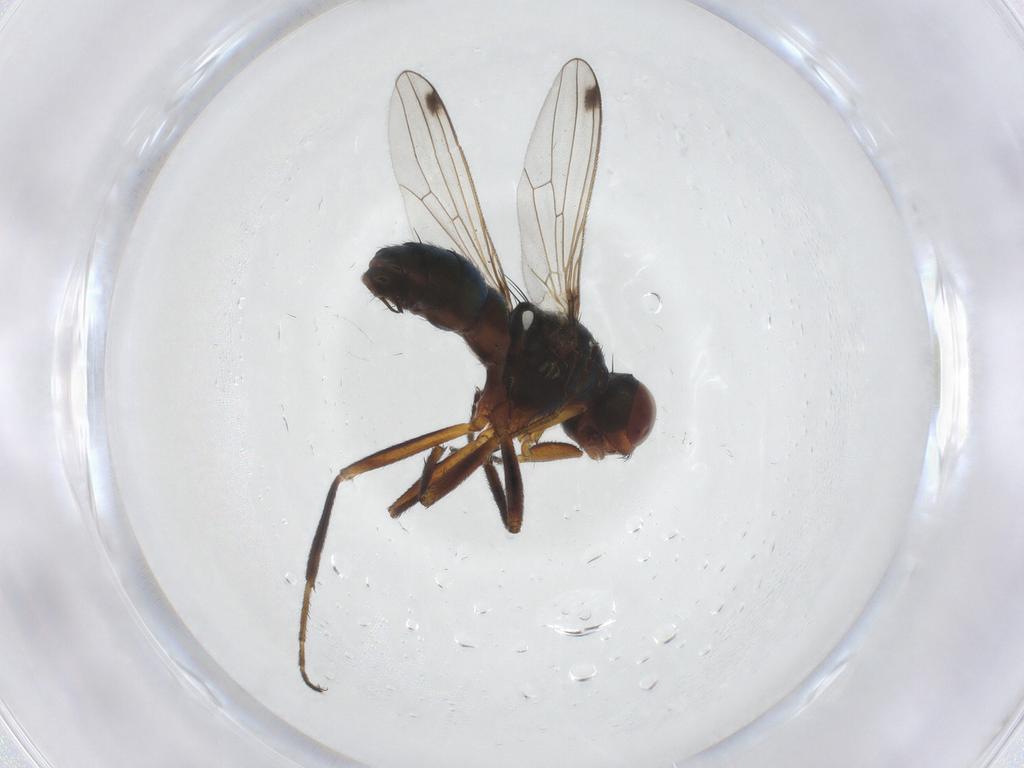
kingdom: Animalia
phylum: Arthropoda
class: Insecta
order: Diptera
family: Sepsidae
